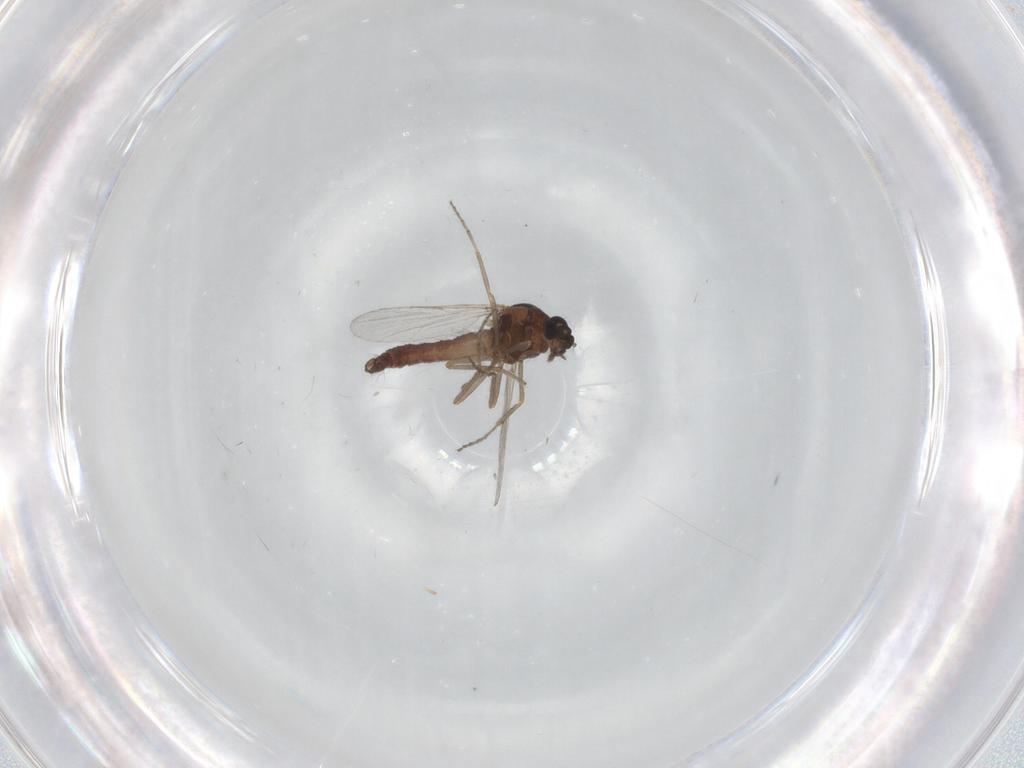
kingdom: Animalia
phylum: Arthropoda
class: Insecta
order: Diptera
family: Ceratopogonidae
